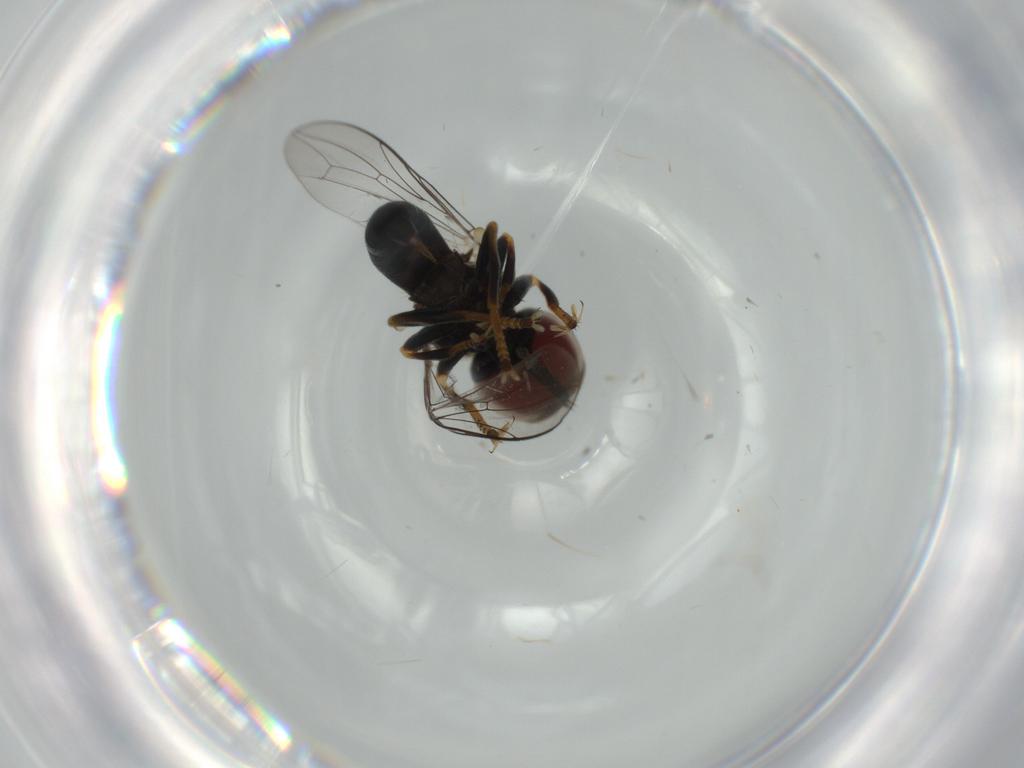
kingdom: Animalia
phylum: Arthropoda
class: Insecta
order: Diptera
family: Pipunculidae
